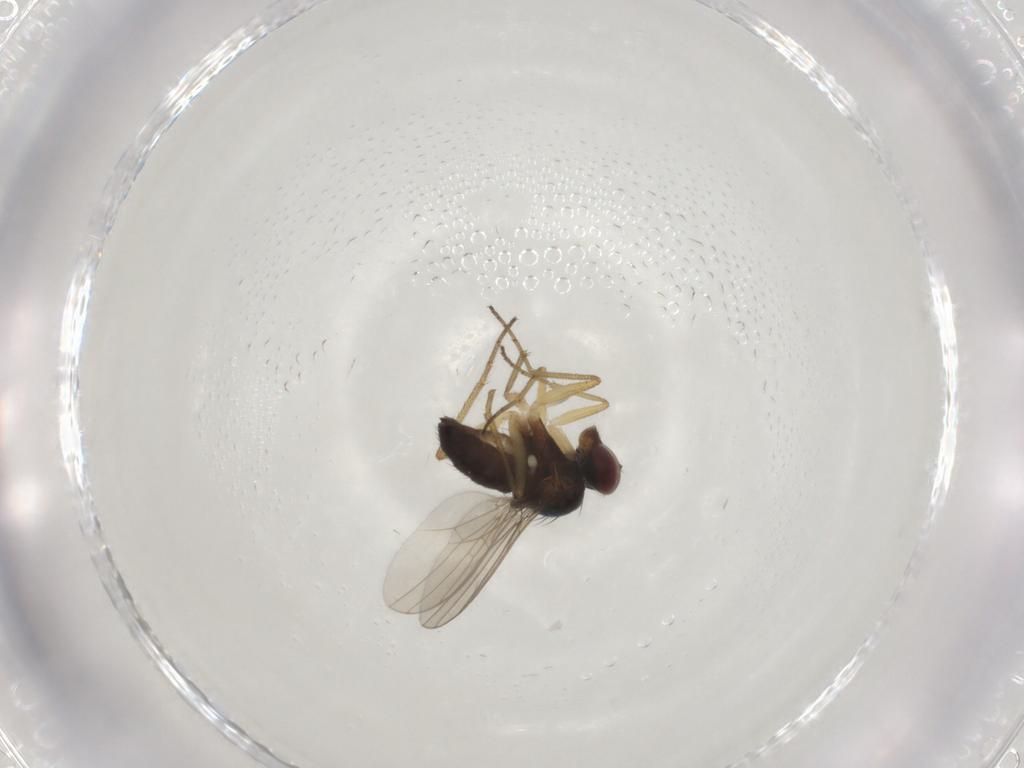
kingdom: Animalia
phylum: Arthropoda
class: Insecta
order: Diptera
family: Dolichopodidae
